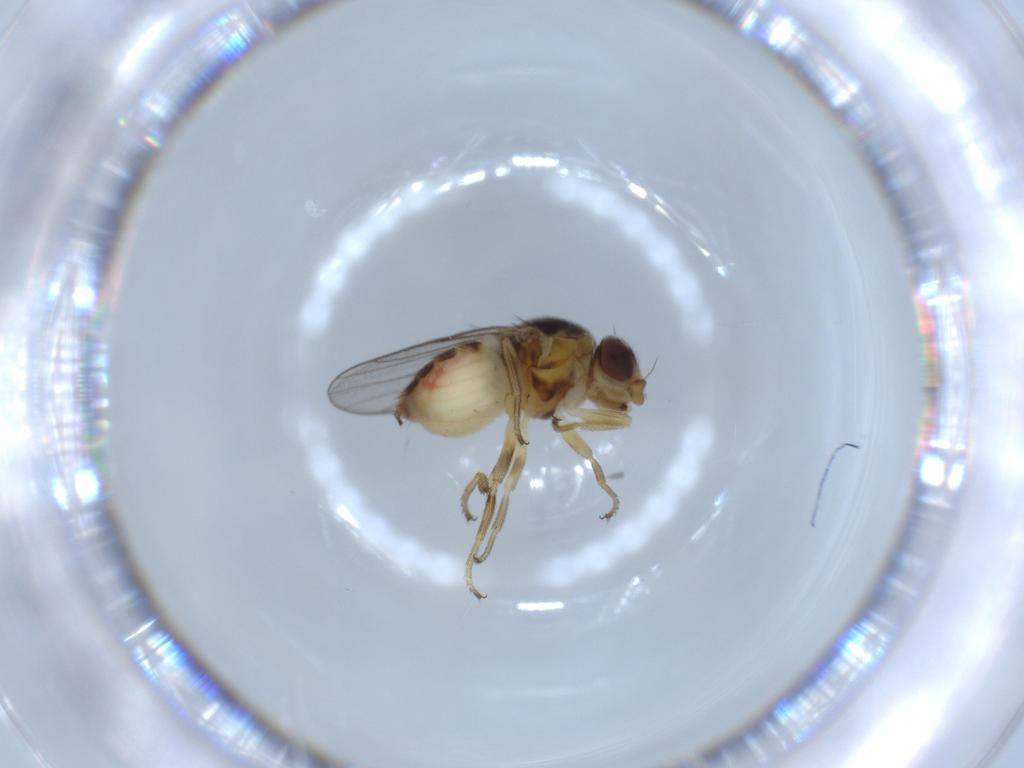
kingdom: Animalia
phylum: Arthropoda
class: Insecta
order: Diptera
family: Chloropidae
